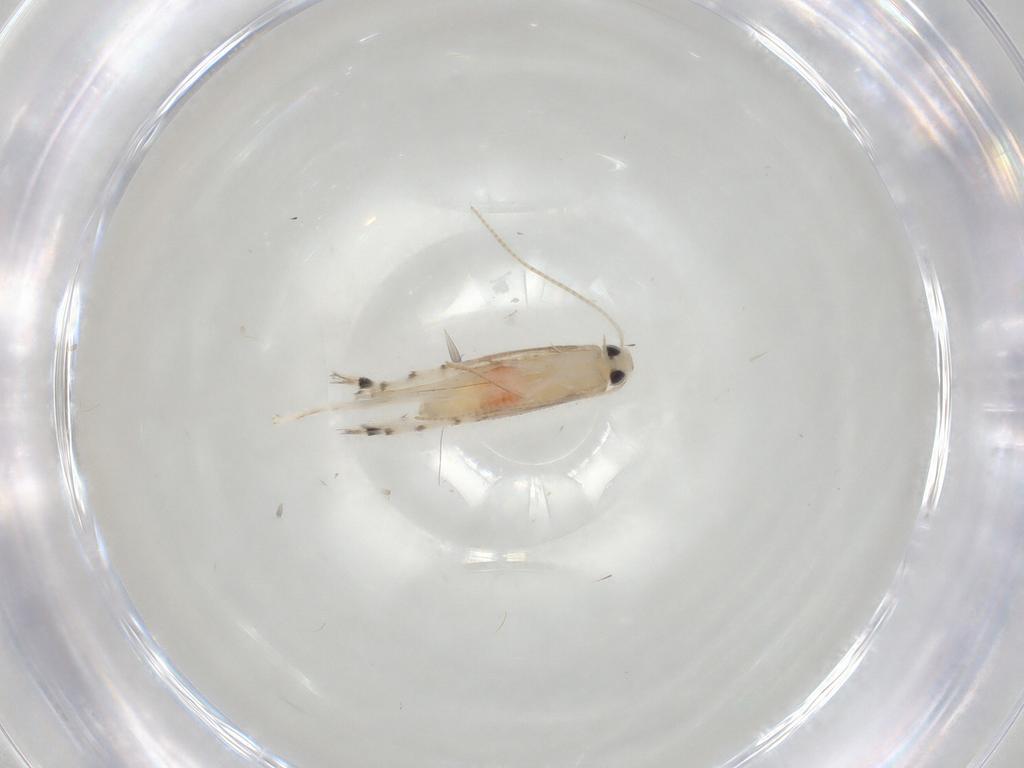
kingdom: Animalia
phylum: Arthropoda
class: Insecta
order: Lepidoptera
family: Gracillariidae
